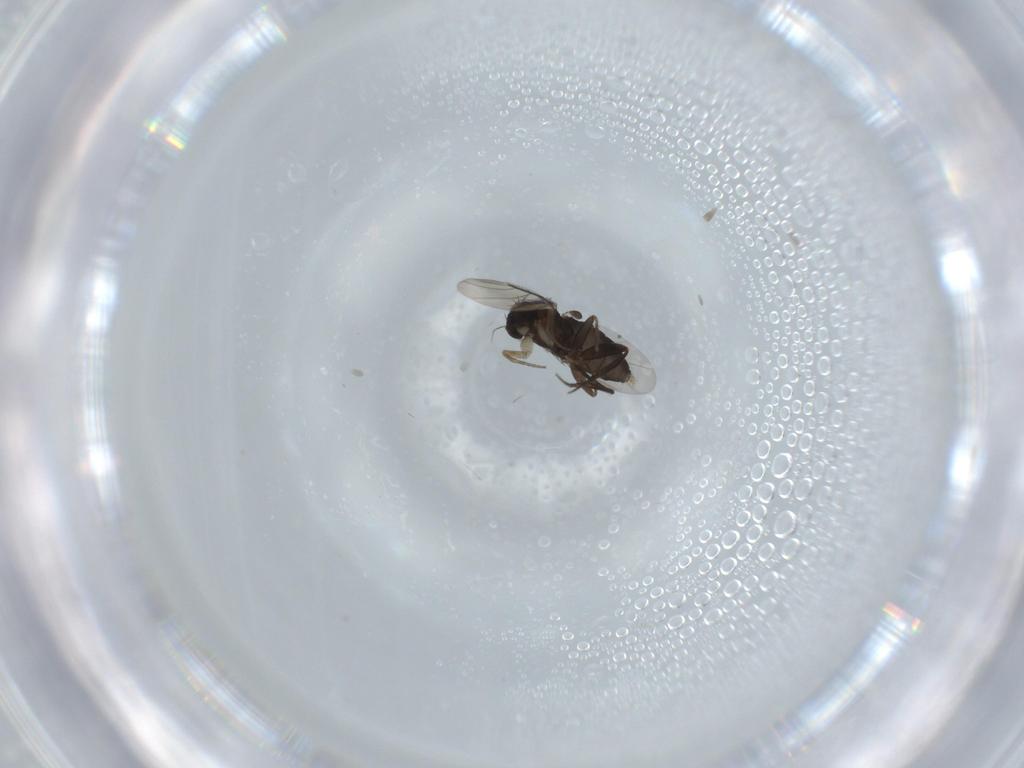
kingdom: Animalia
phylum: Arthropoda
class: Insecta
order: Diptera
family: Phoridae
